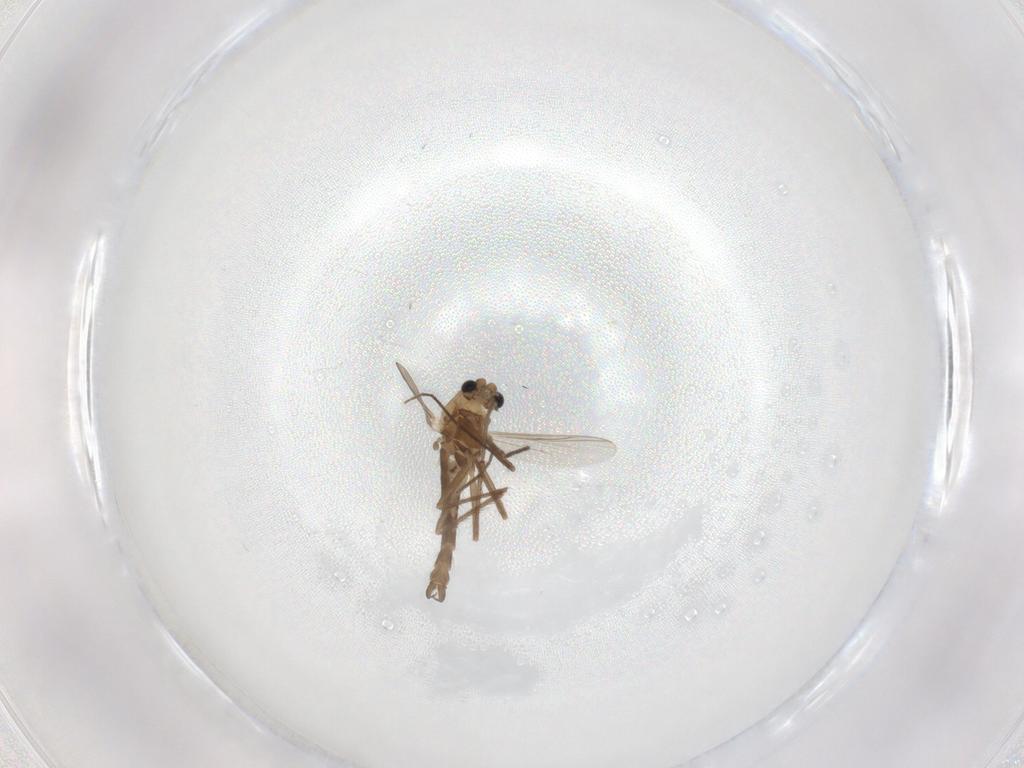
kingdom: Animalia
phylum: Arthropoda
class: Insecta
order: Diptera
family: Chironomidae
